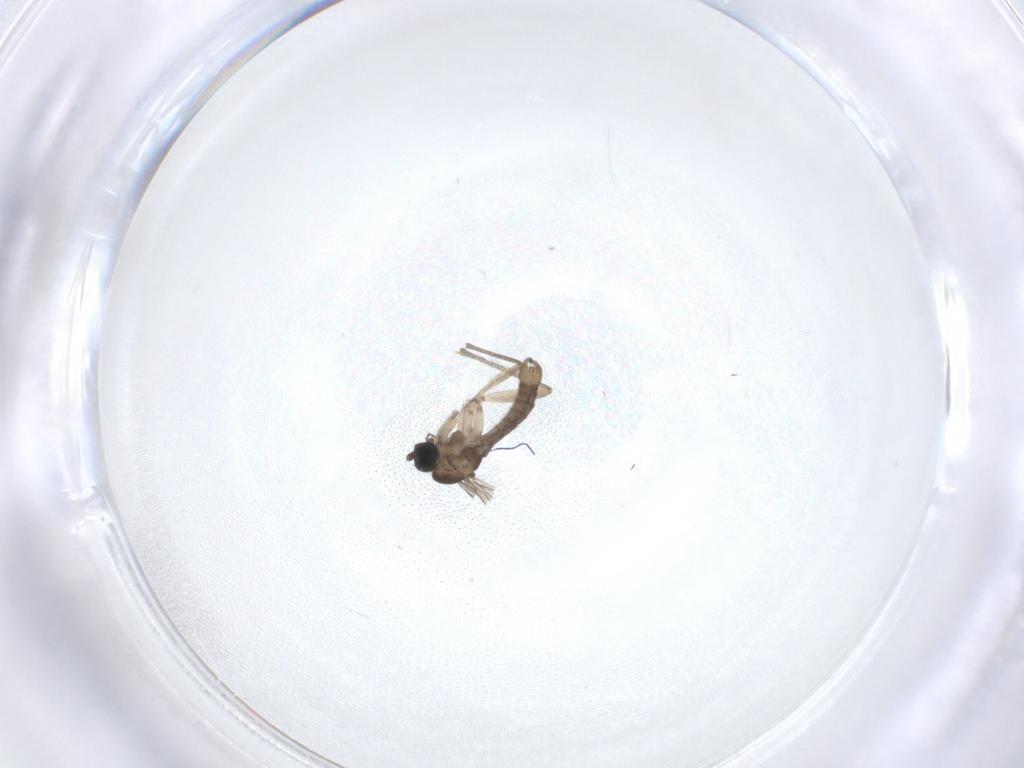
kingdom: Animalia
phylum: Arthropoda
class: Insecta
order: Diptera
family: Sciaridae
